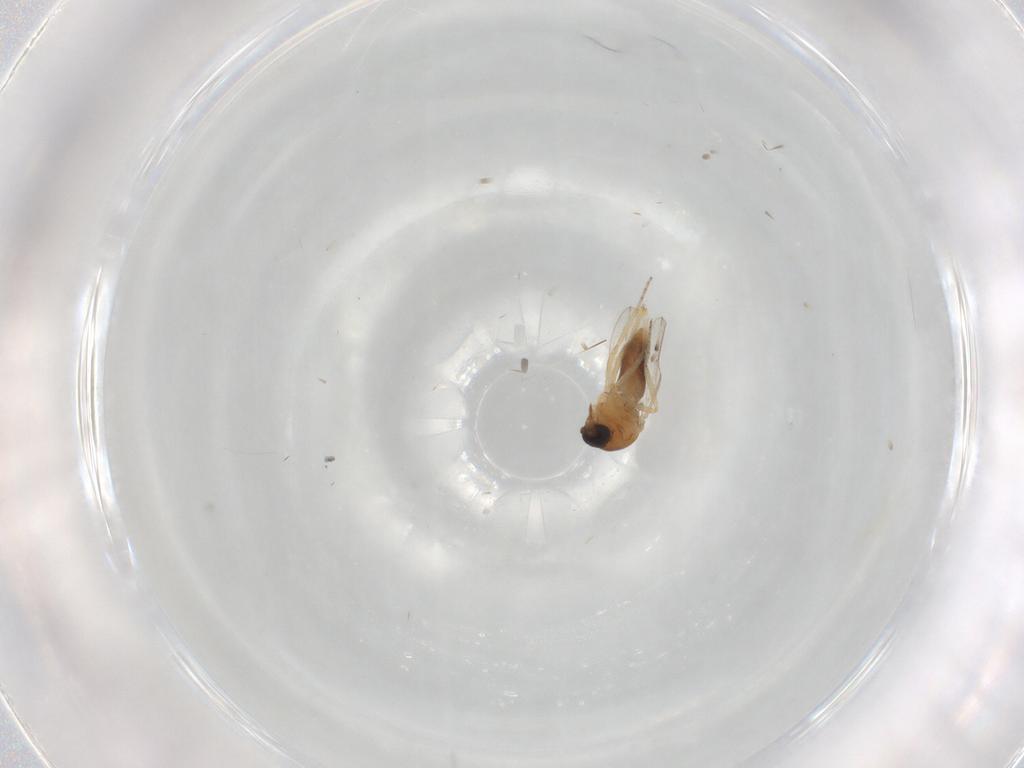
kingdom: Animalia
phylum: Arthropoda
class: Insecta
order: Diptera
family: Ceratopogonidae
